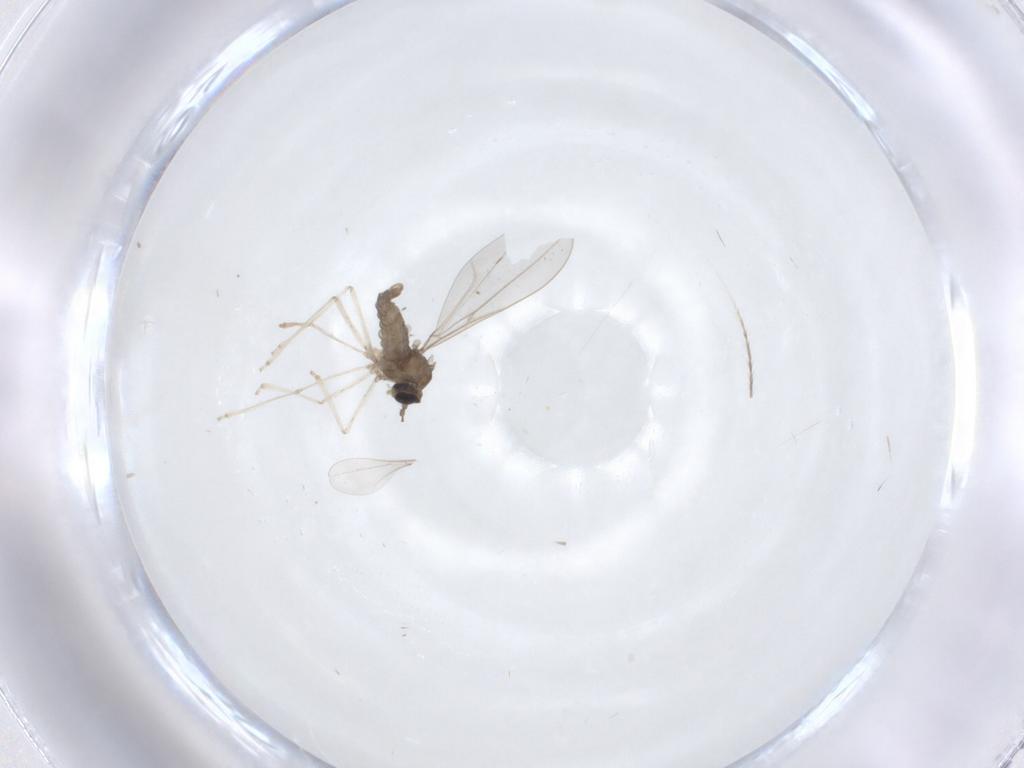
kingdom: Animalia
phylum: Arthropoda
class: Insecta
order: Diptera
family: Cecidomyiidae
